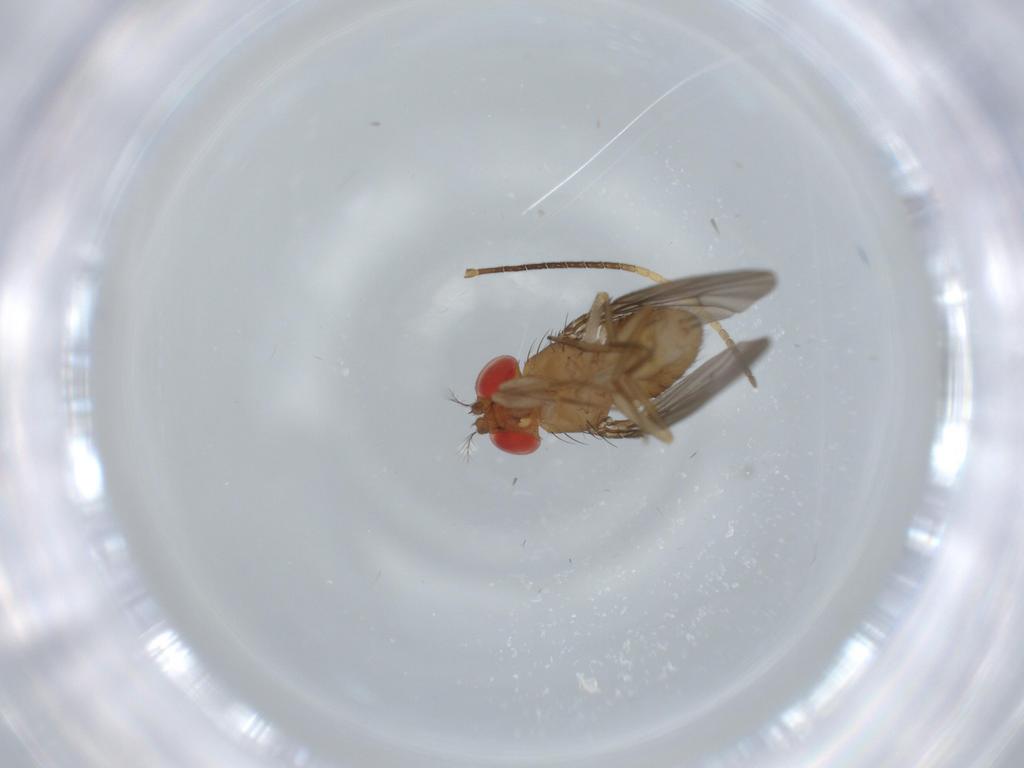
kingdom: Animalia
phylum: Arthropoda
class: Insecta
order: Diptera
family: Drosophilidae
